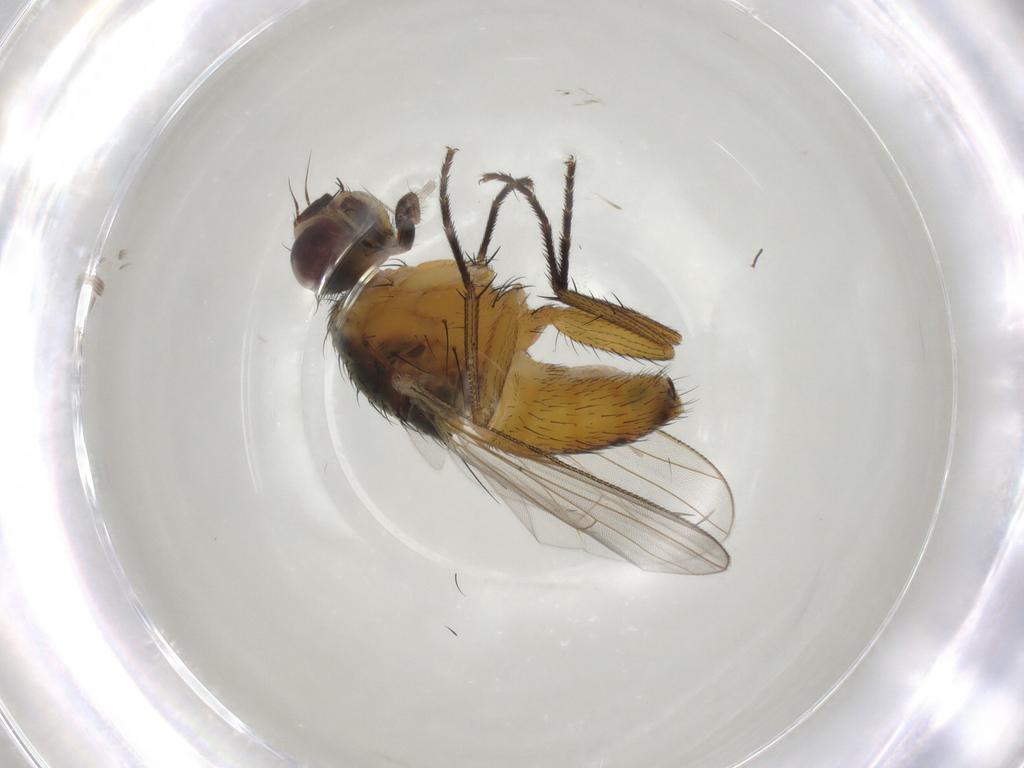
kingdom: Animalia
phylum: Arthropoda
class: Insecta
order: Diptera
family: Muscidae
